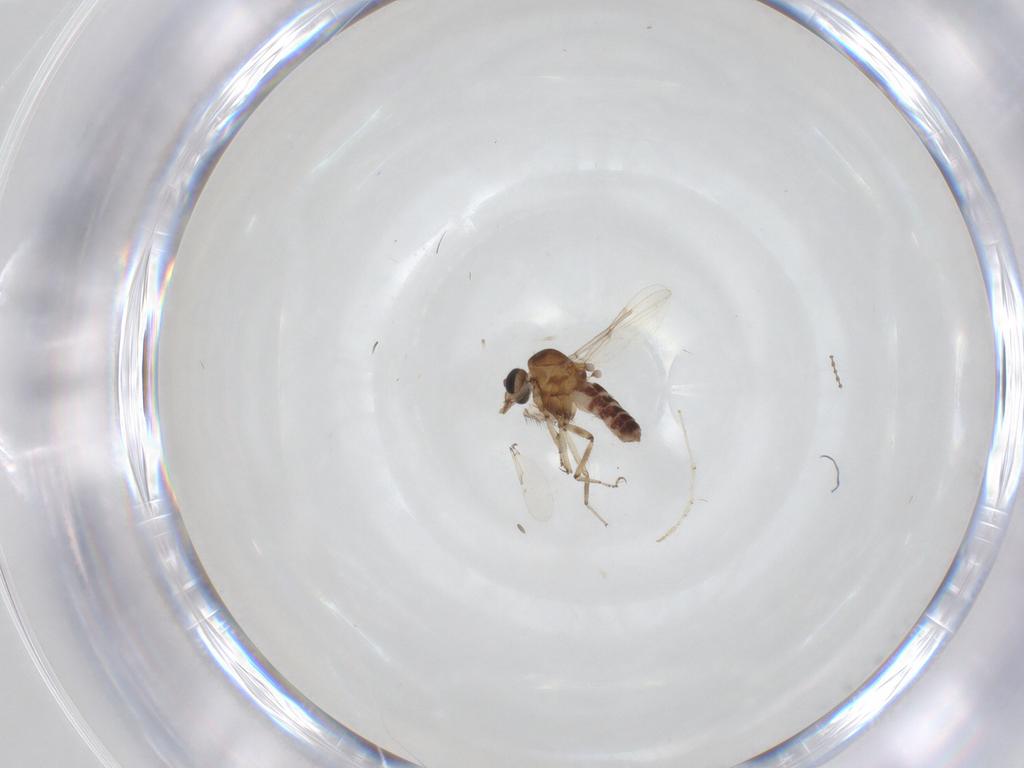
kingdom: Animalia
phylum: Arthropoda
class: Insecta
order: Diptera
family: Ceratopogonidae
